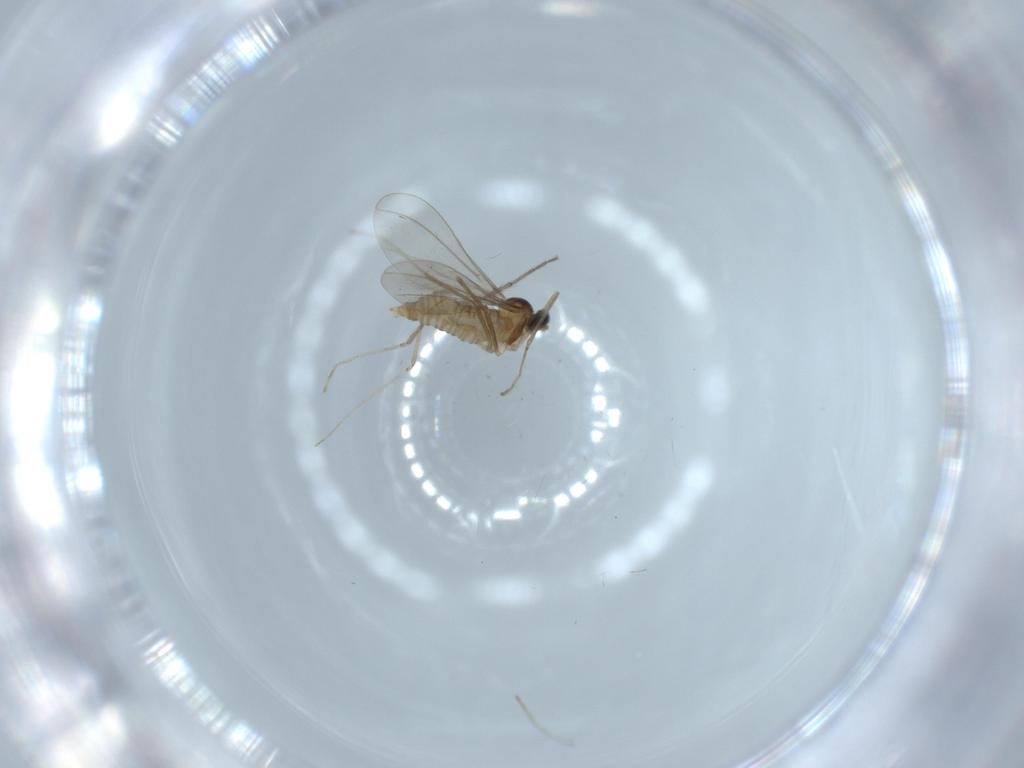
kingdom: Animalia
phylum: Arthropoda
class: Insecta
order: Diptera
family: Cecidomyiidae
